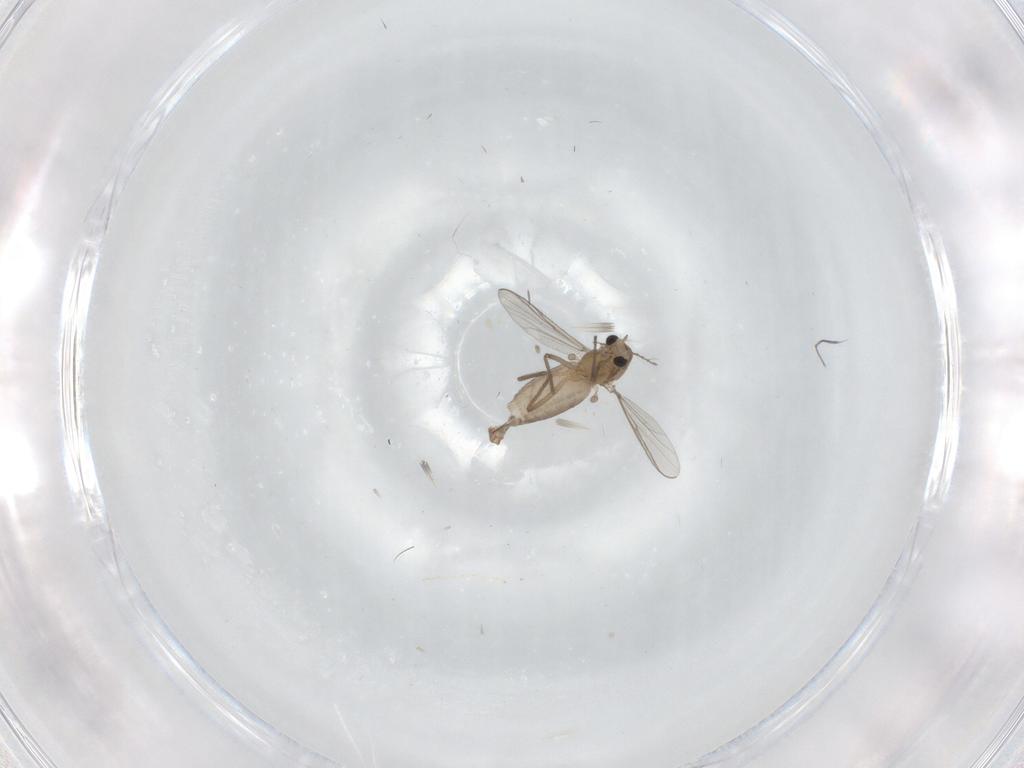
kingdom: Animalia
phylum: Arthropoda
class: Insecta
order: Diptera
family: Chironomidae
